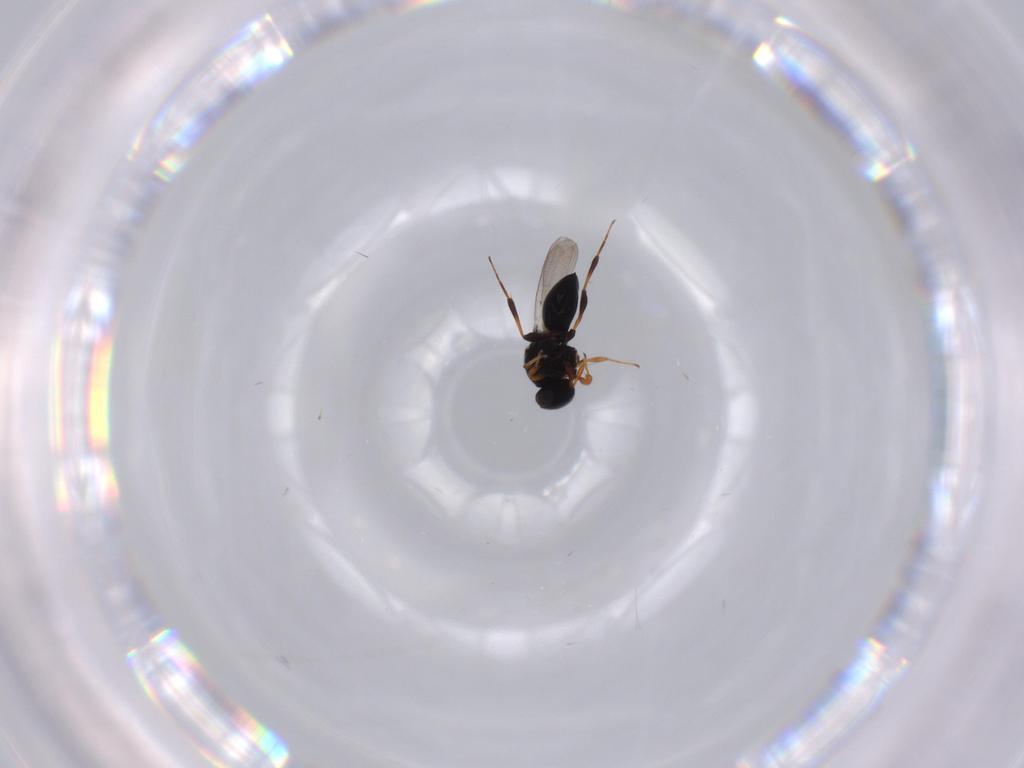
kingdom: Animalia
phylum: Arthropoda
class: Insecta
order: Hymenoptera
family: Platygastridae
